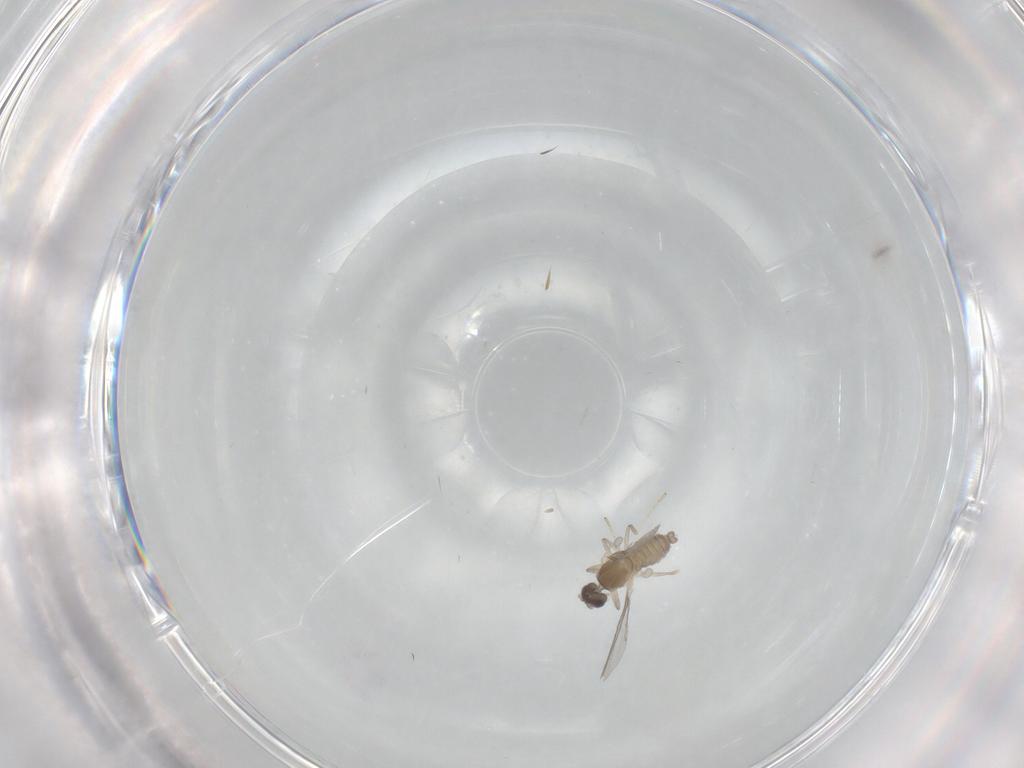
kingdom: Animalia
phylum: Arthropoda
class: Insecta
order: Diptera
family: Cecidomyiidae
